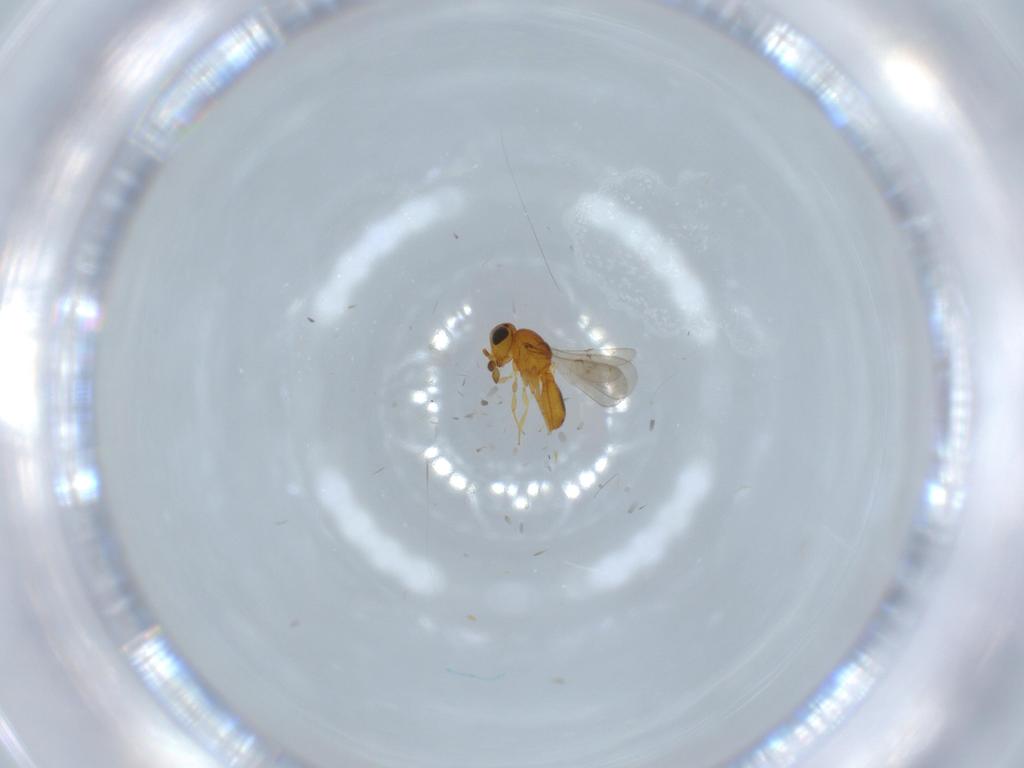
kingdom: Animalia
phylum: Arthropoda
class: Insecta
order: Hymenoptera
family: Scelionidae
